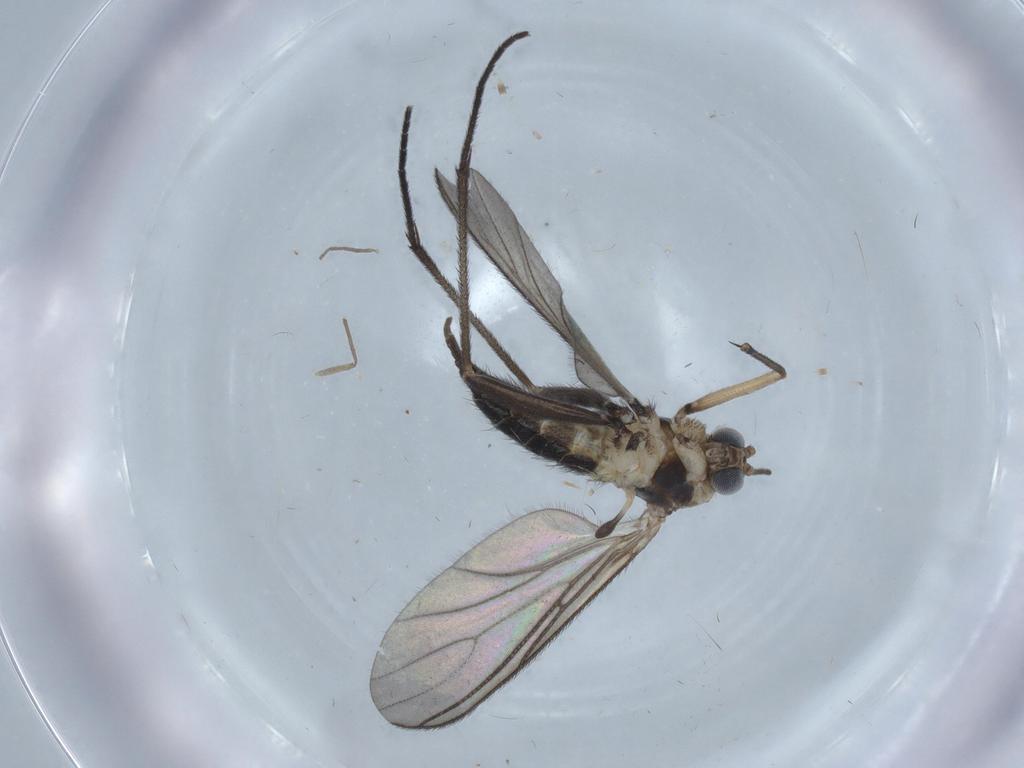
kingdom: Animalia
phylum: Arthropoda
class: Insecta
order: Diptera
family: Sciaridae
